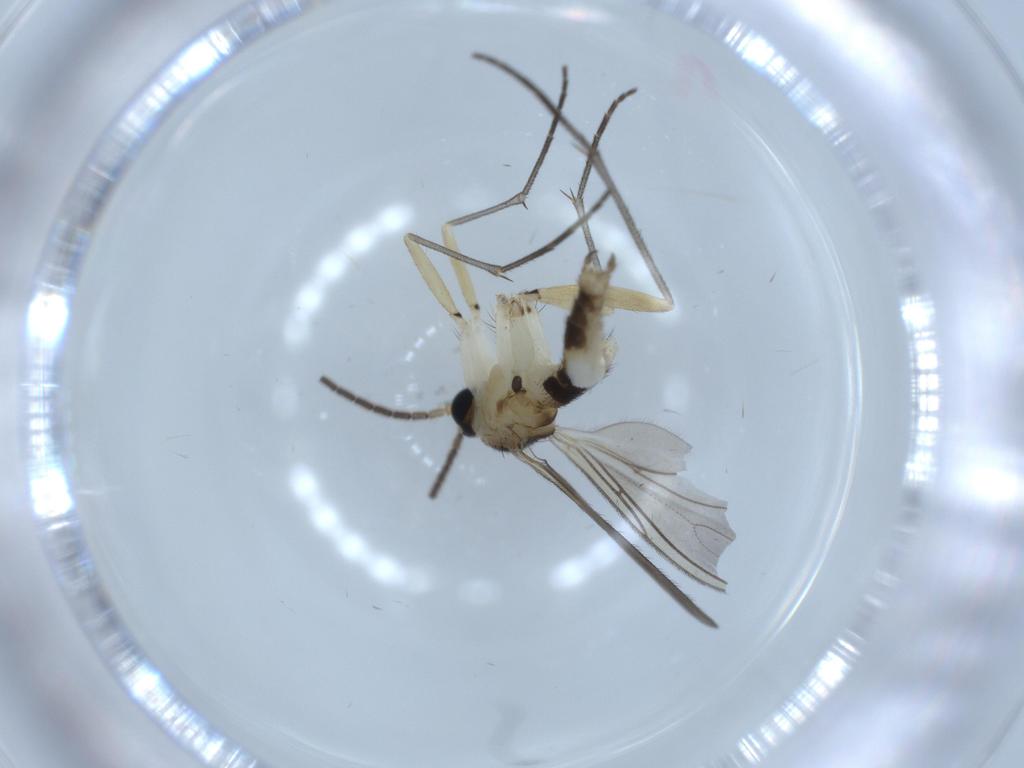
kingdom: Animalia
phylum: Arthropoda
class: Insecta
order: Diptera
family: Sciaridae
